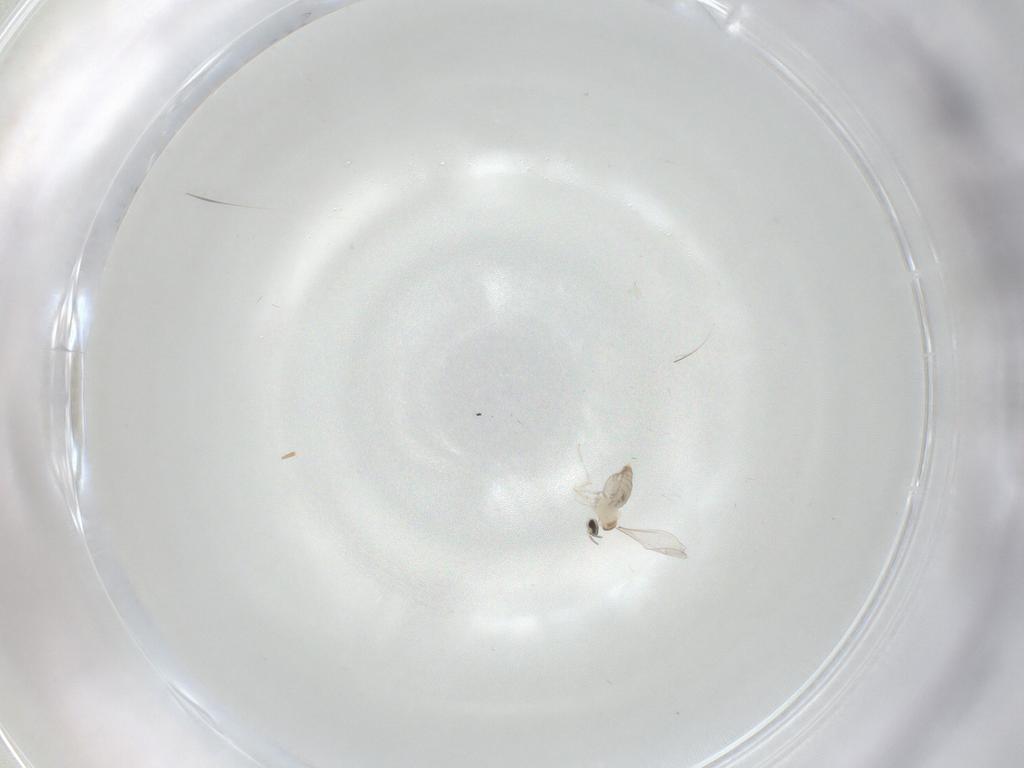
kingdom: Animalia
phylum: Arthropoda
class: Insecta
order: Diptera
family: Cecidomyiidae
